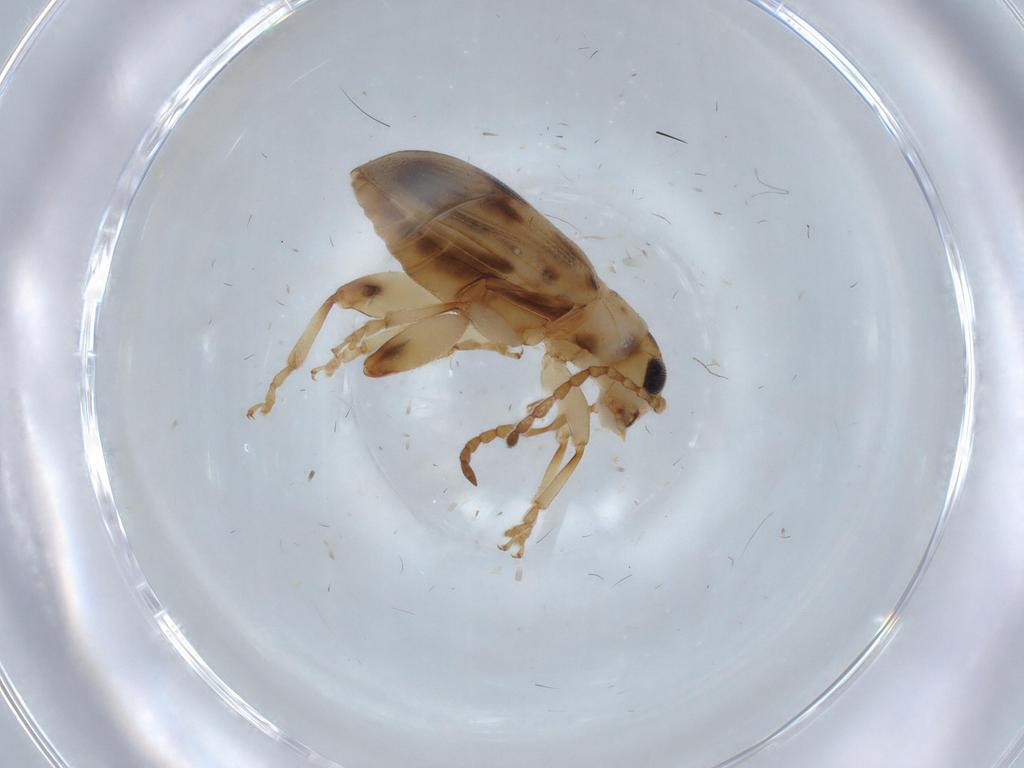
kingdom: Animalia
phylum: Arthropoda
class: Insecta
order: Coleoptera
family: Chrysomelidae
